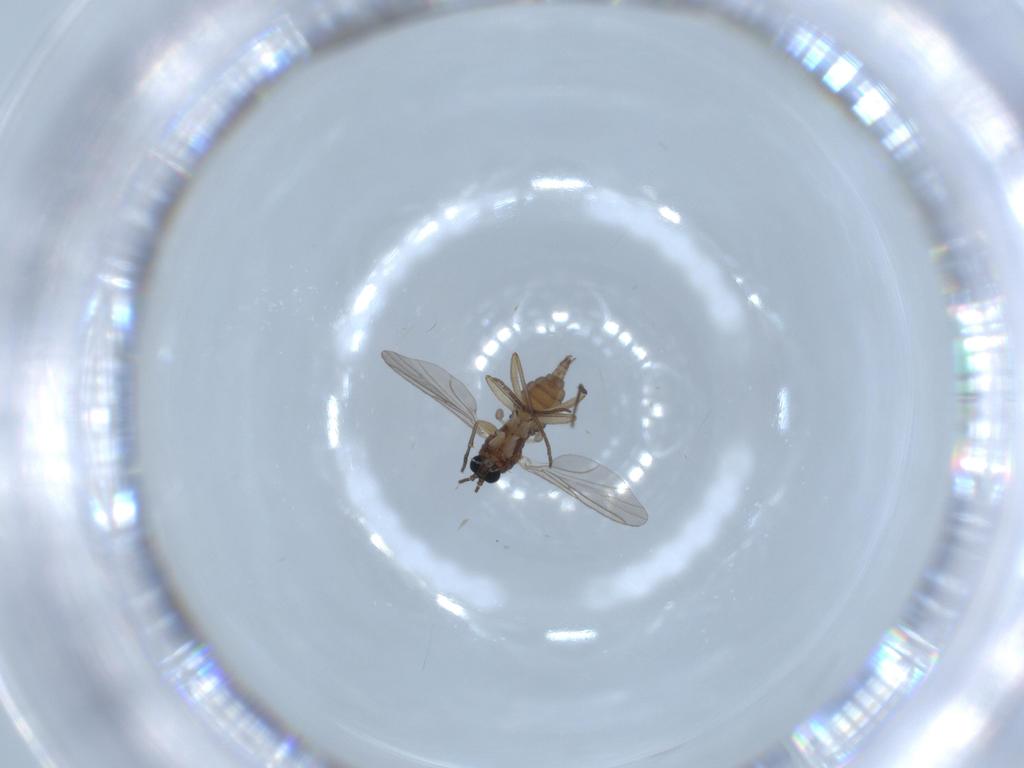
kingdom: Animalia
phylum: Arthropoda
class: Insecta
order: Diptera
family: Sciaridae
